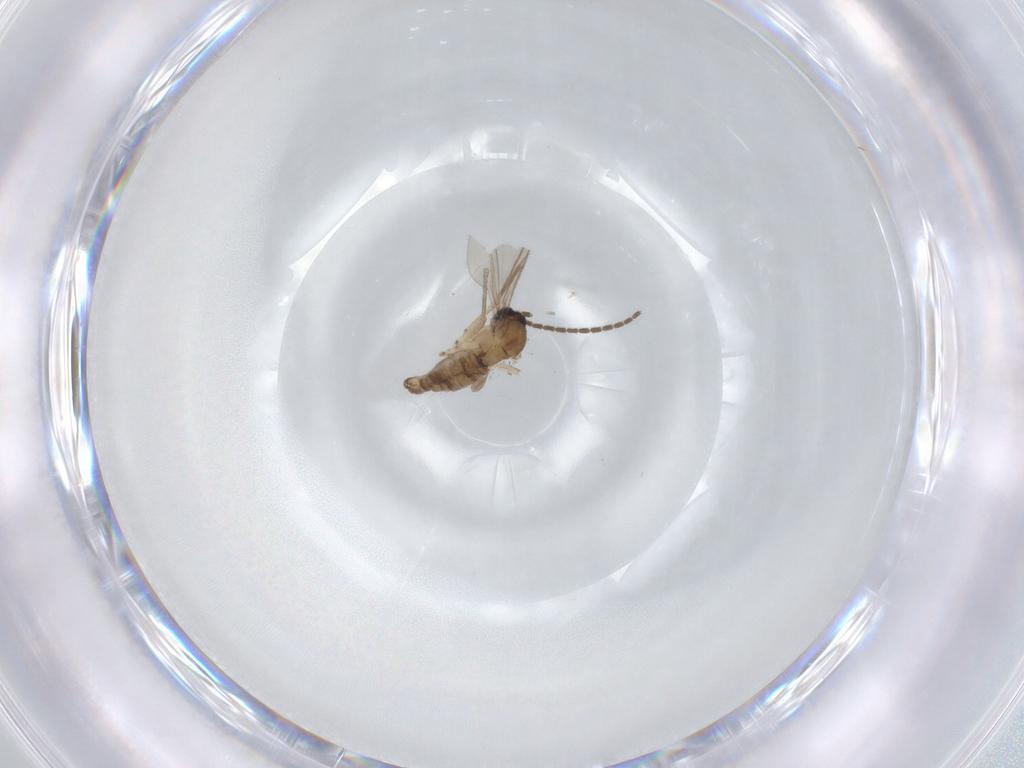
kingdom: Animalia
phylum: Arthropoda
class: Insecta
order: Diptera
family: Sciaridae
